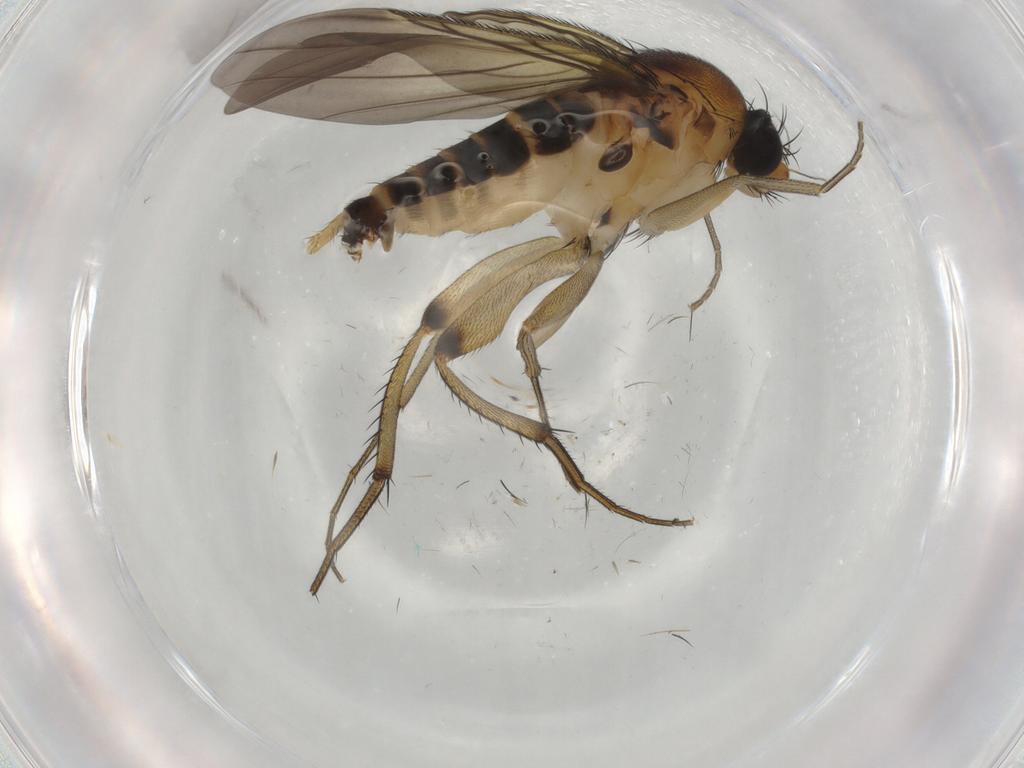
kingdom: Animalia
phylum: Arthropoda
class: Insecta
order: Diptera
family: Phoridae
